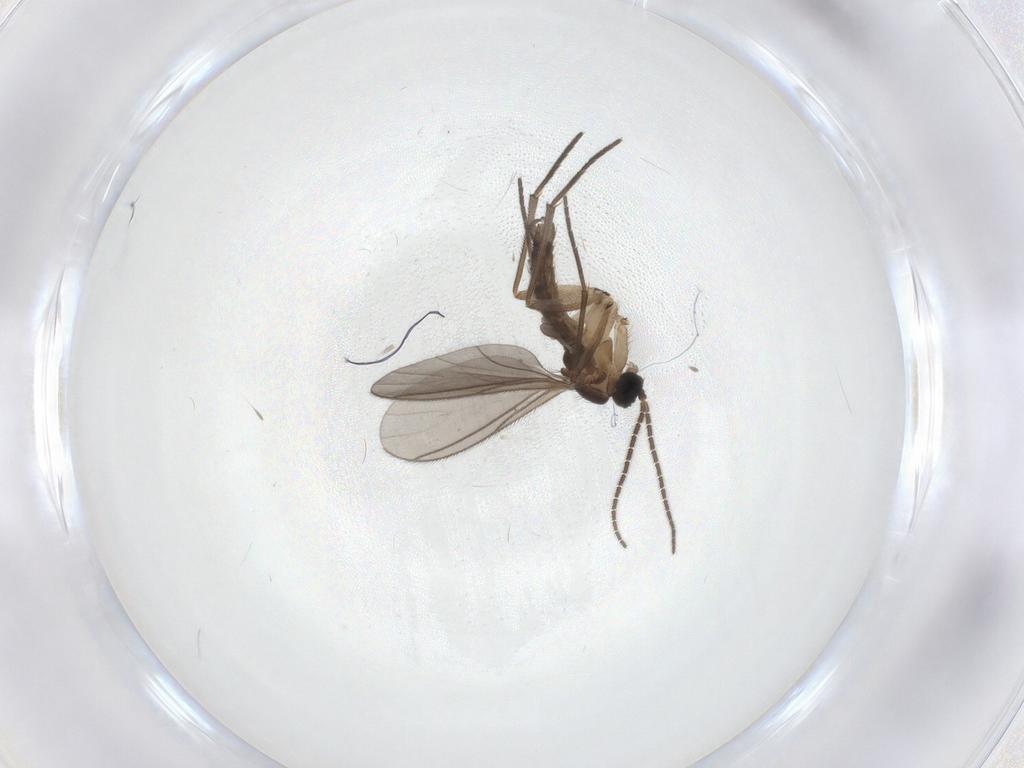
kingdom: Animalia
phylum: Arthropoda
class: Insecta
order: Diptera
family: Sciaridae
